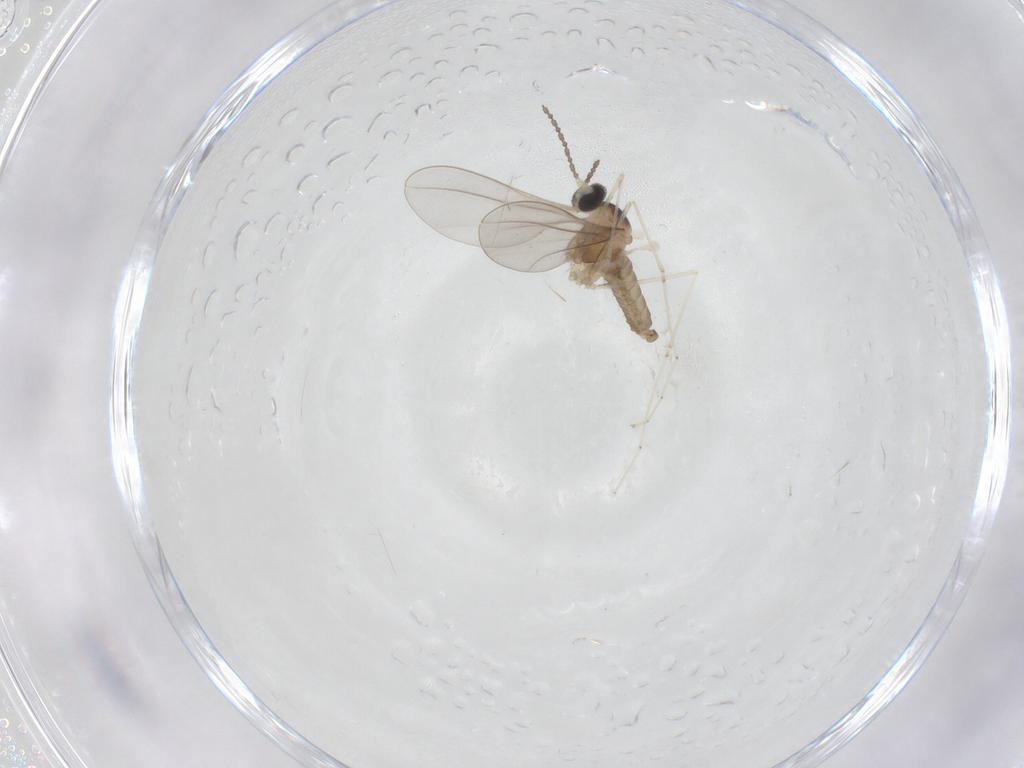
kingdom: Animalia
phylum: Arthropoda
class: Insecta
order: Diptera
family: Cecidomyiidae
